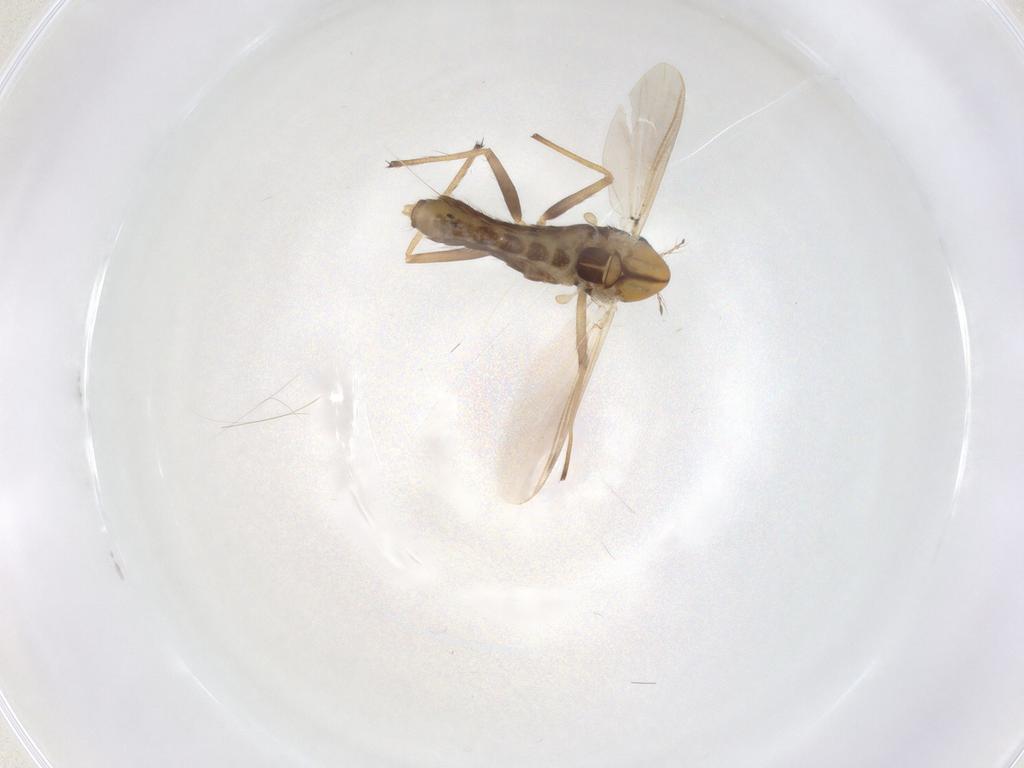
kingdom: Animalia
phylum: Arthropoda
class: Insecta
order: Diptera
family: Chironomidae
